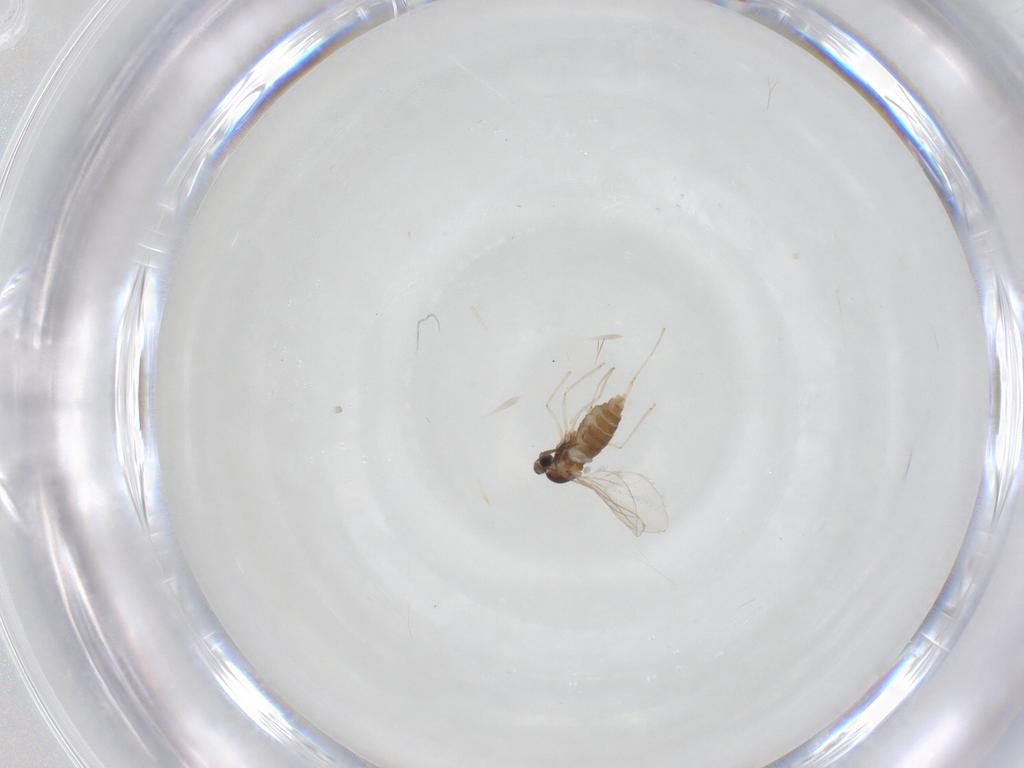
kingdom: Animalia
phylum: Arthropoda
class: Insecta
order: Diptera
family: Cecidomyiidae
